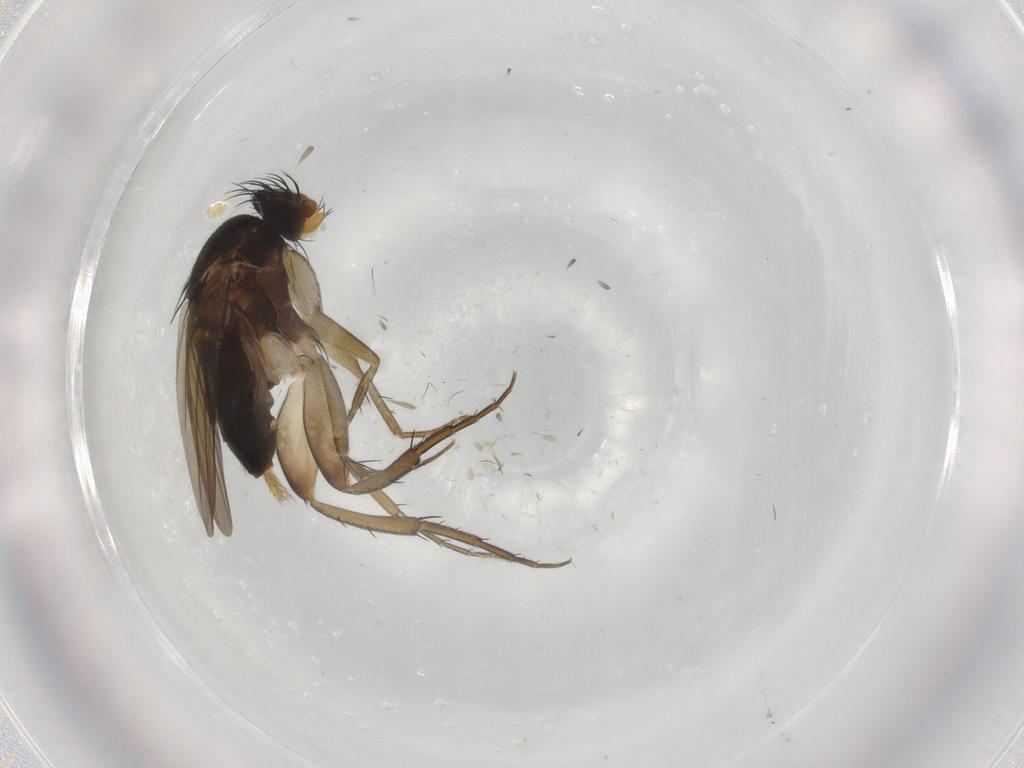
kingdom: Animalia
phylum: Arthropoda
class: Insecta
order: Diptera
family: Phoridae
